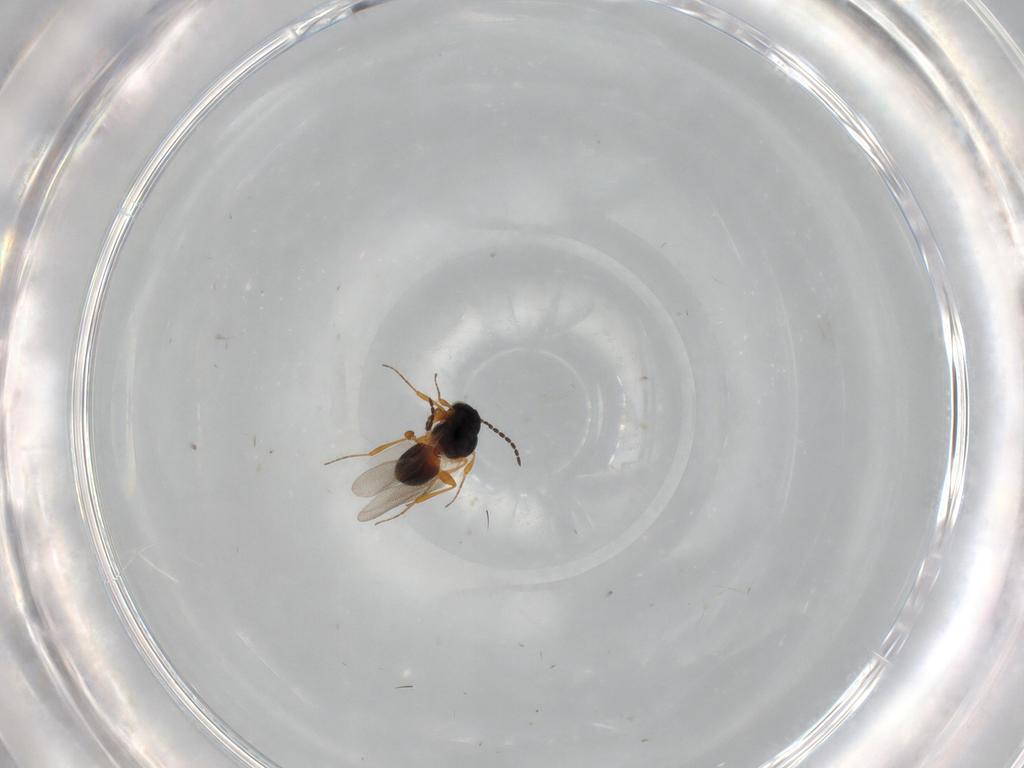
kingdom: Animalia
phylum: Arthropoda
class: Insecta
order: Hymenoptera
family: Platygastridae
